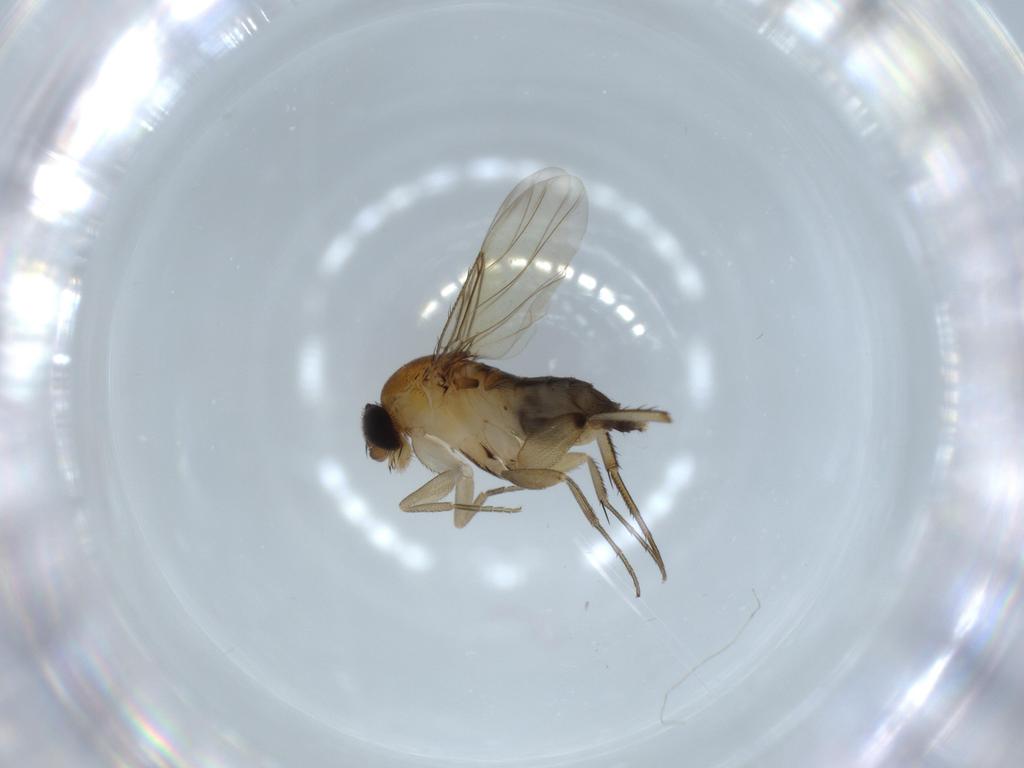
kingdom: Animalia
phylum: Arthropoda
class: Insecta
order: Diptera
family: Phoridae
